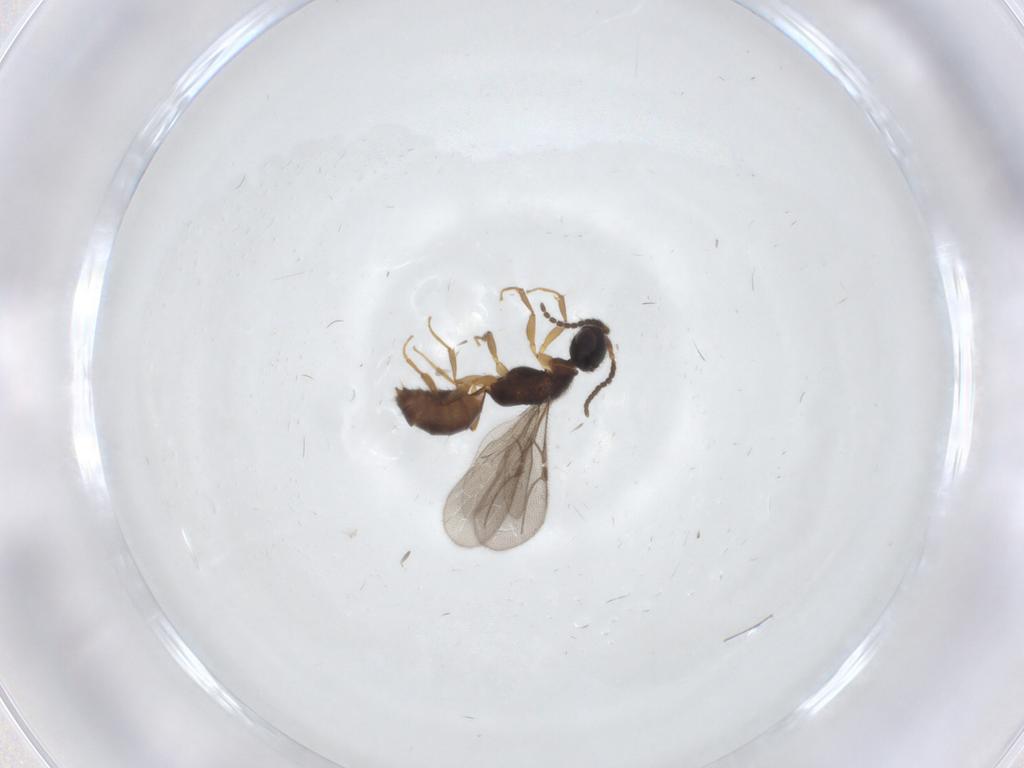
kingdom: Animalia
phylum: Arthropoda
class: Insecta
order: Hymenoptera
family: Bethylidae
